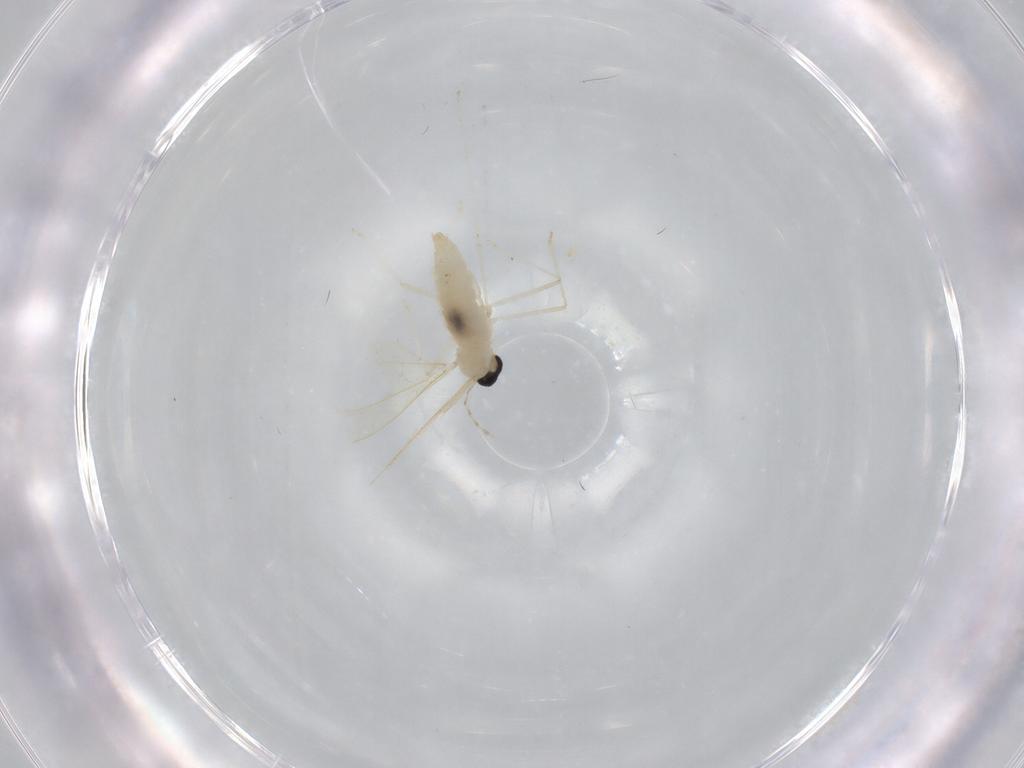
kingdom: Animalia
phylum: Arthropoda
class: Insecta
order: Diptera
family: Cecidomyiidae
